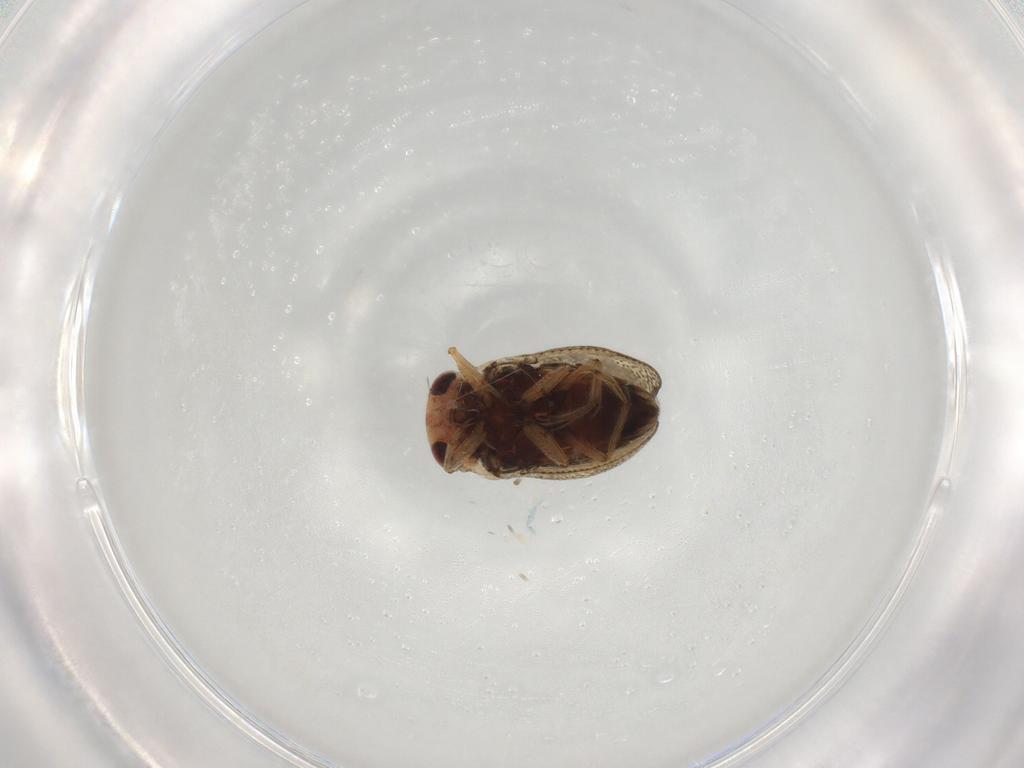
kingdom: Animalia
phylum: Arthropoda
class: Insecta
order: Hemiptera
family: Pleidae
